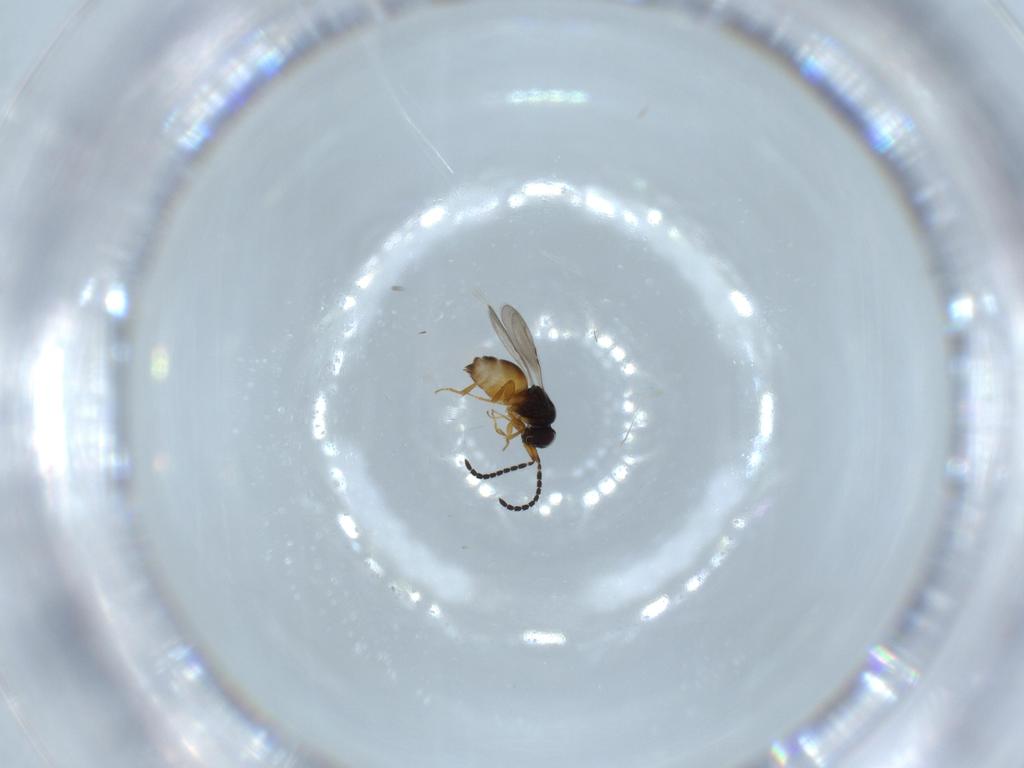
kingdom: Animalia
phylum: Arthropoda
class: Insecta
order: Hymenoptera
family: Mymaridae
